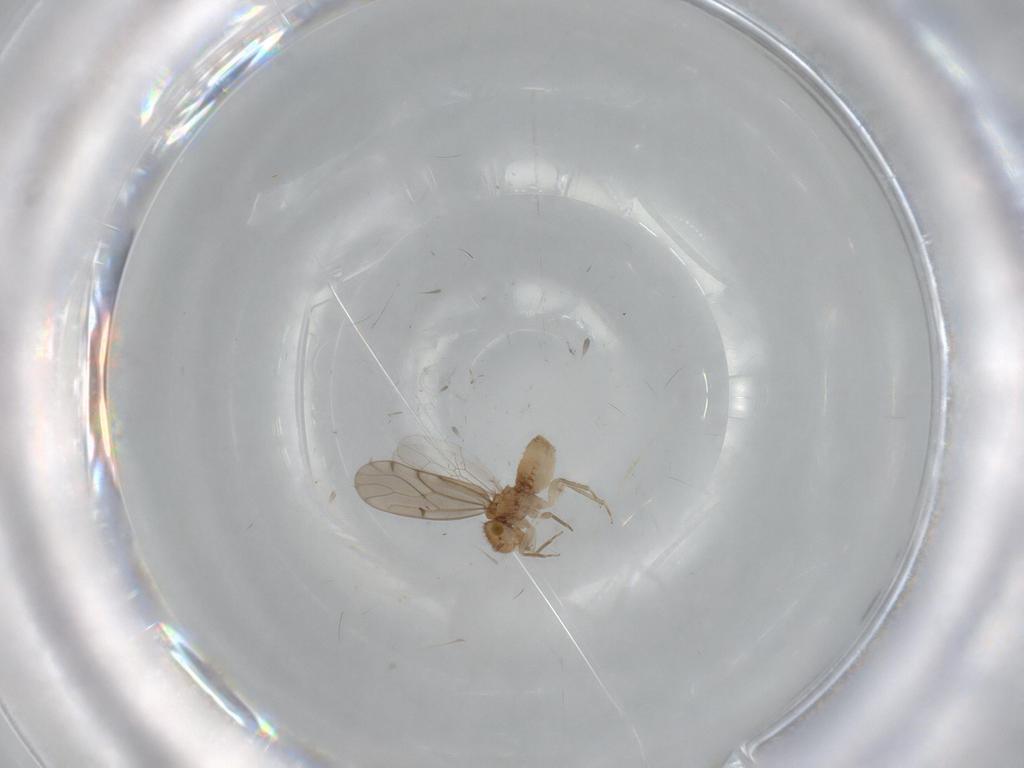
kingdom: Animalia
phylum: Arthropoda
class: Insecta
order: Psocodea
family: Ectopsocidae
